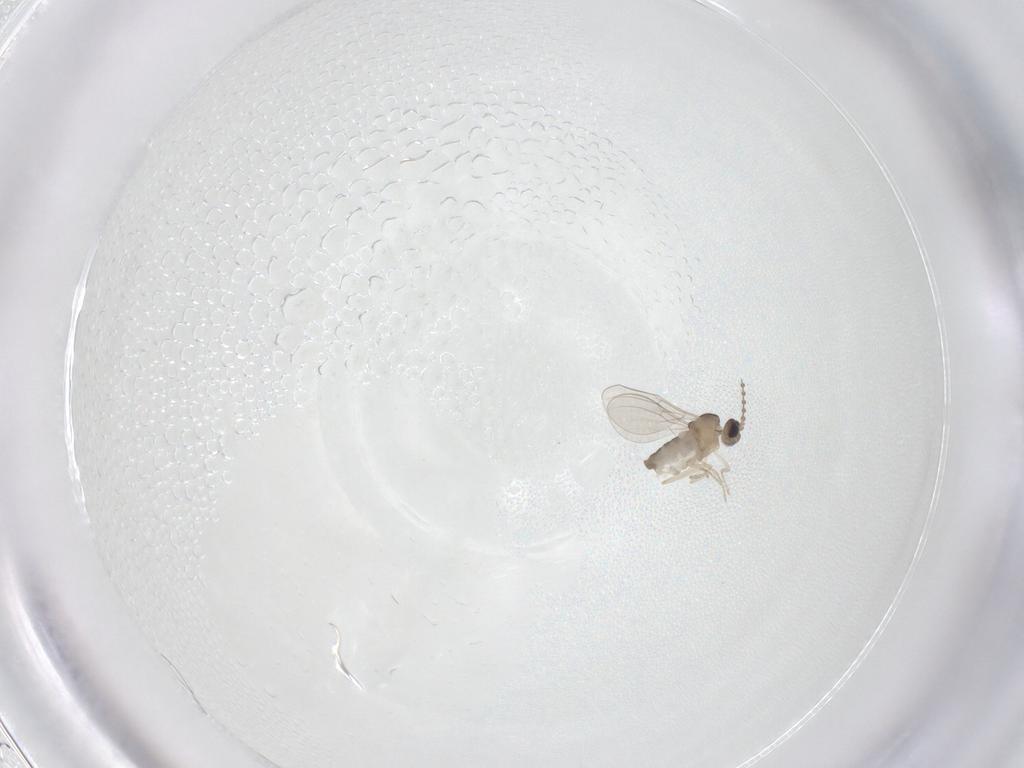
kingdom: Animalia
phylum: Arthropoda
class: Insecta
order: Diptera
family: Cecidomyiidae
